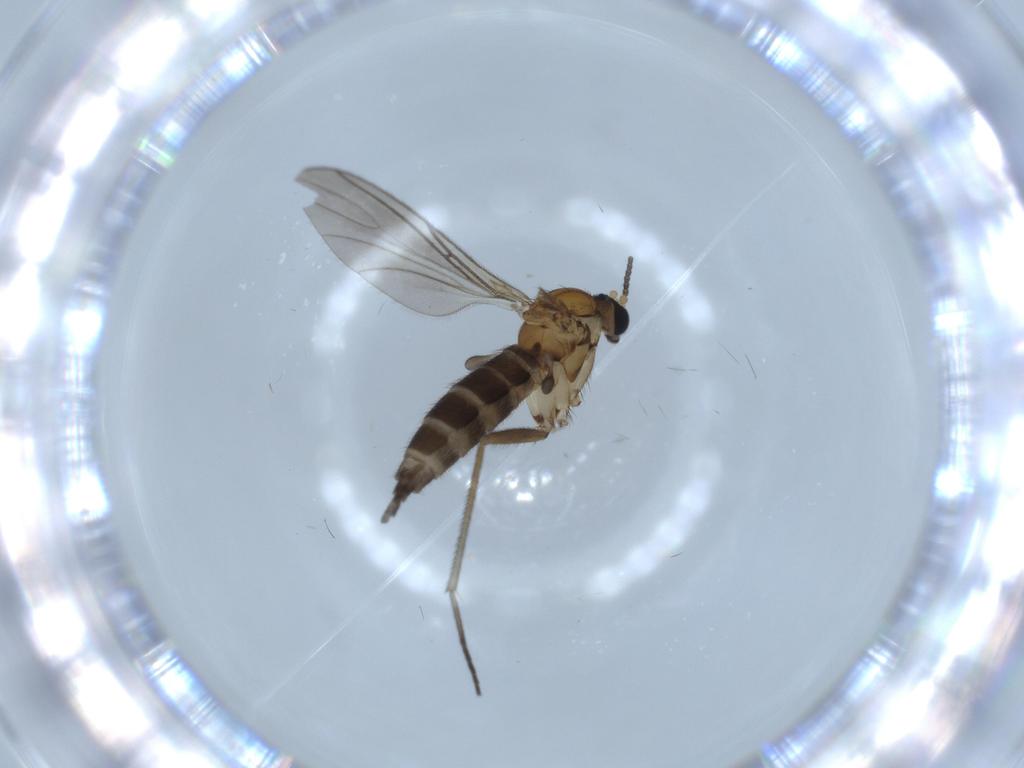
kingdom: Animalia
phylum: Arthropoda
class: Insecta
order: Diptera
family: Sciaridae
